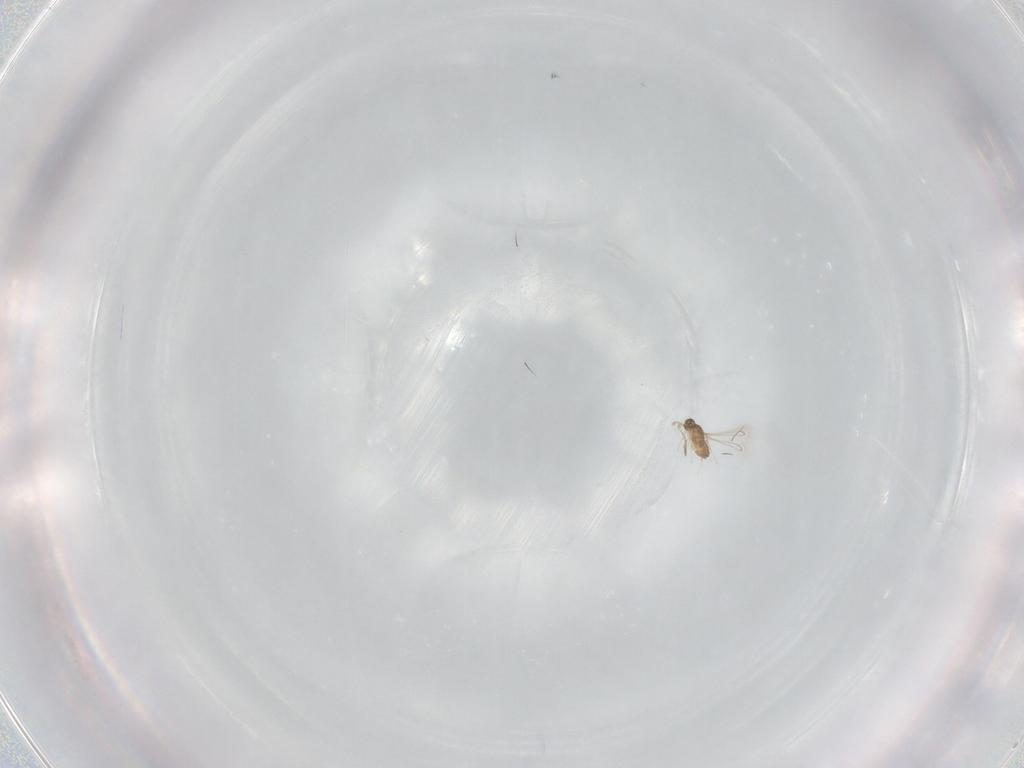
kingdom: Animalia
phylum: Arthropoda
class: Insecta
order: Hymenoptera
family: Mymaridae
